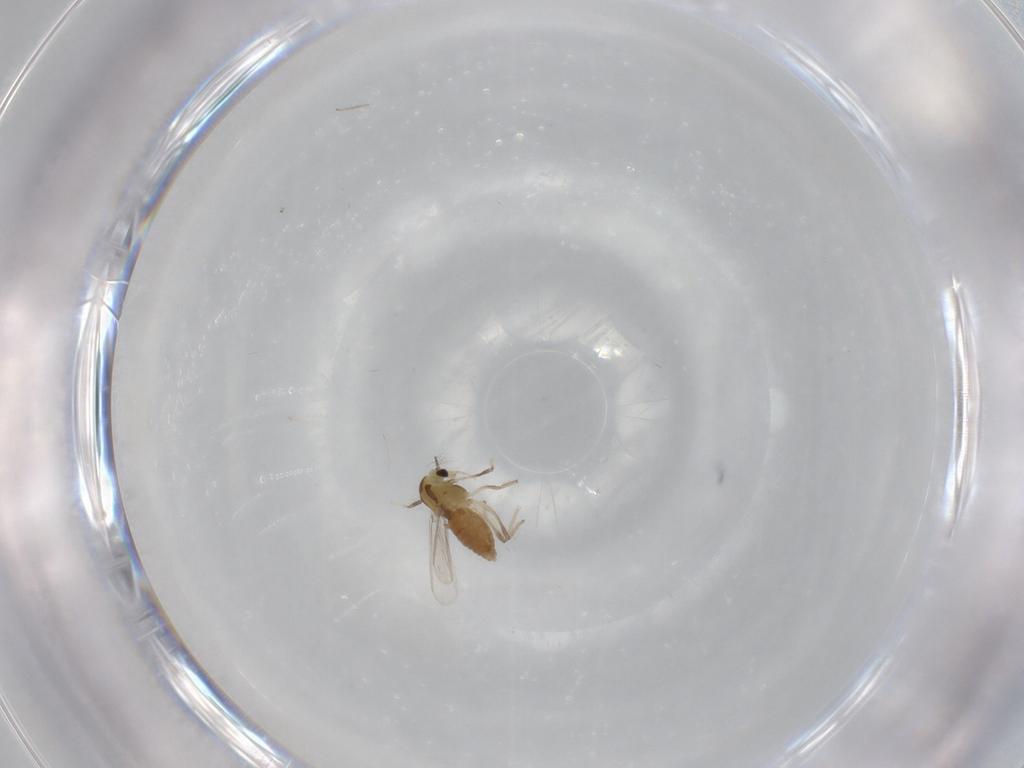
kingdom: Animalia
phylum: Arthropoda
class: Insecta
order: Diptera
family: Chironomidae
